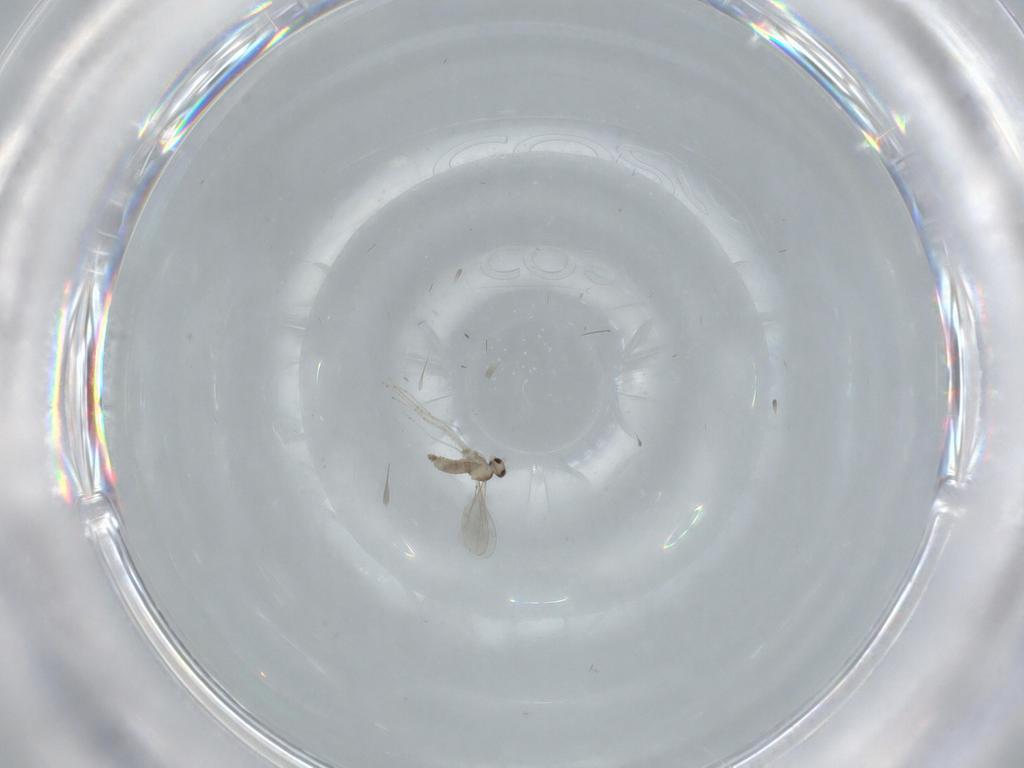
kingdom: Animalia
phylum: Arthropoda
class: Insecta
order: Diptera
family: Cecidomyiidae
